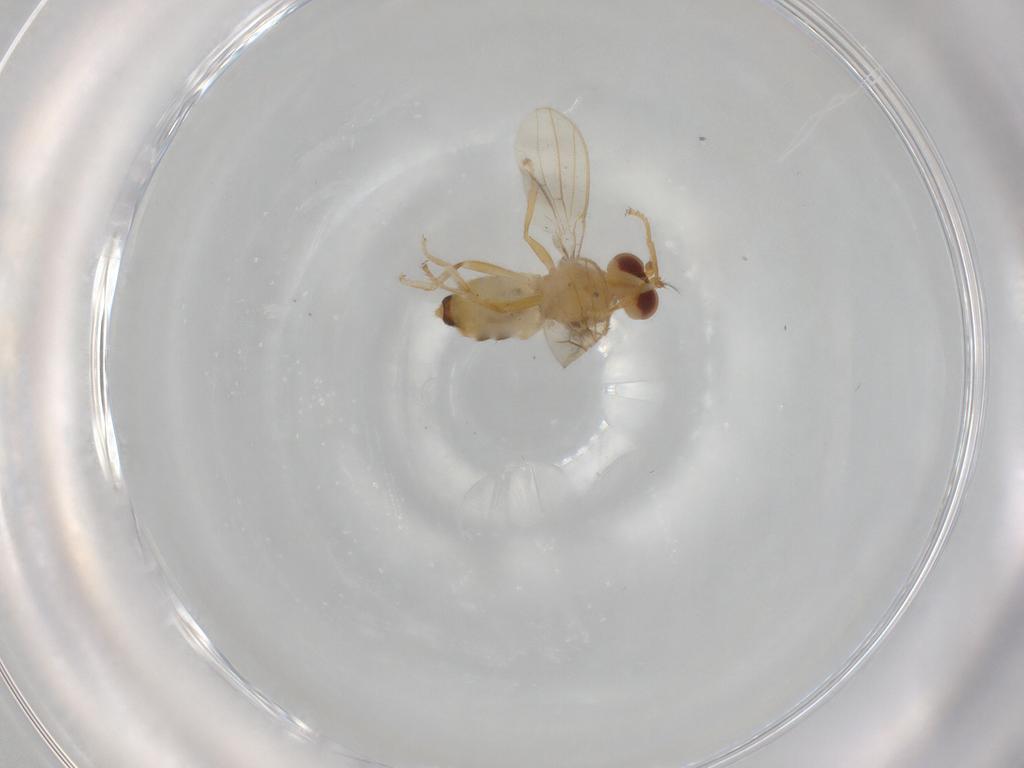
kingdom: Animalia
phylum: Arthropoda
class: Insecta
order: Diptera
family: Periscelididae
